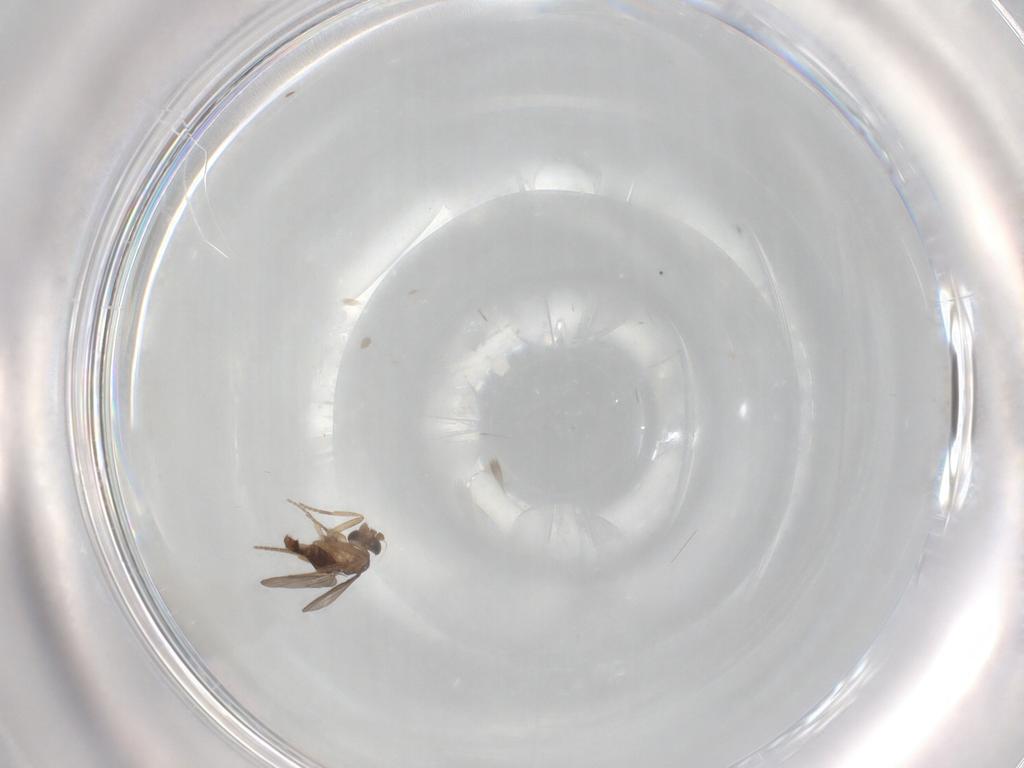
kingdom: Animalia
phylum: Arthropoda
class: Insecta
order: Diptera
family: Phoridae
